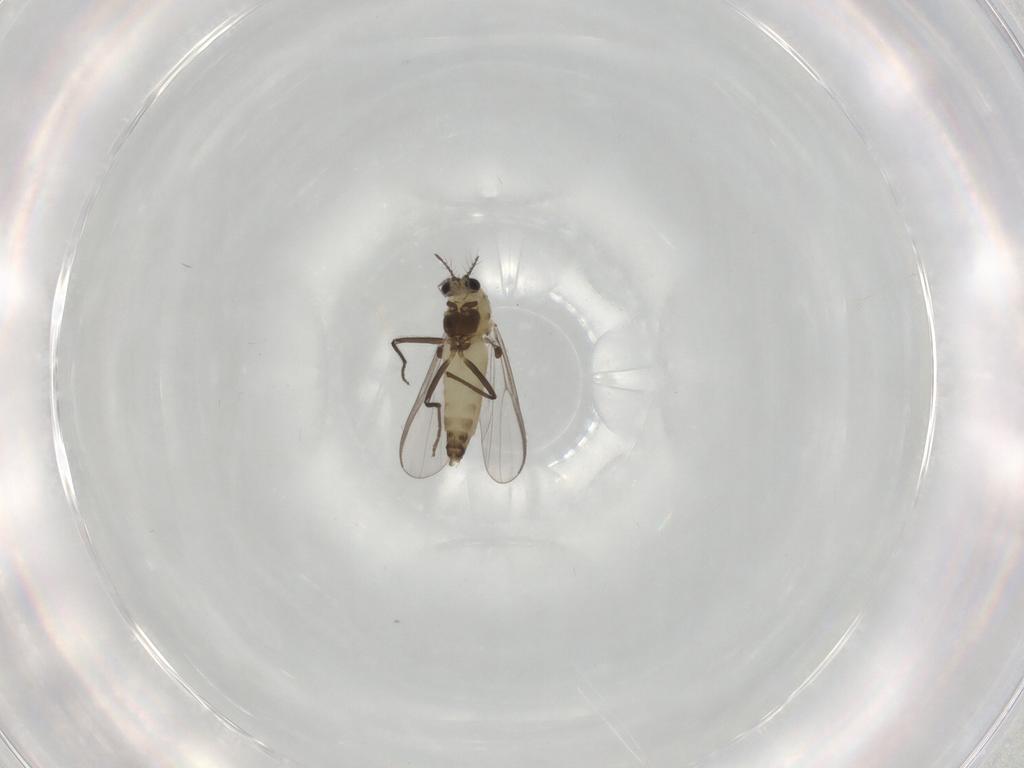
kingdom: Animalia
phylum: Arthropoda
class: Insecta
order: Diptera
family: Chironomidae
